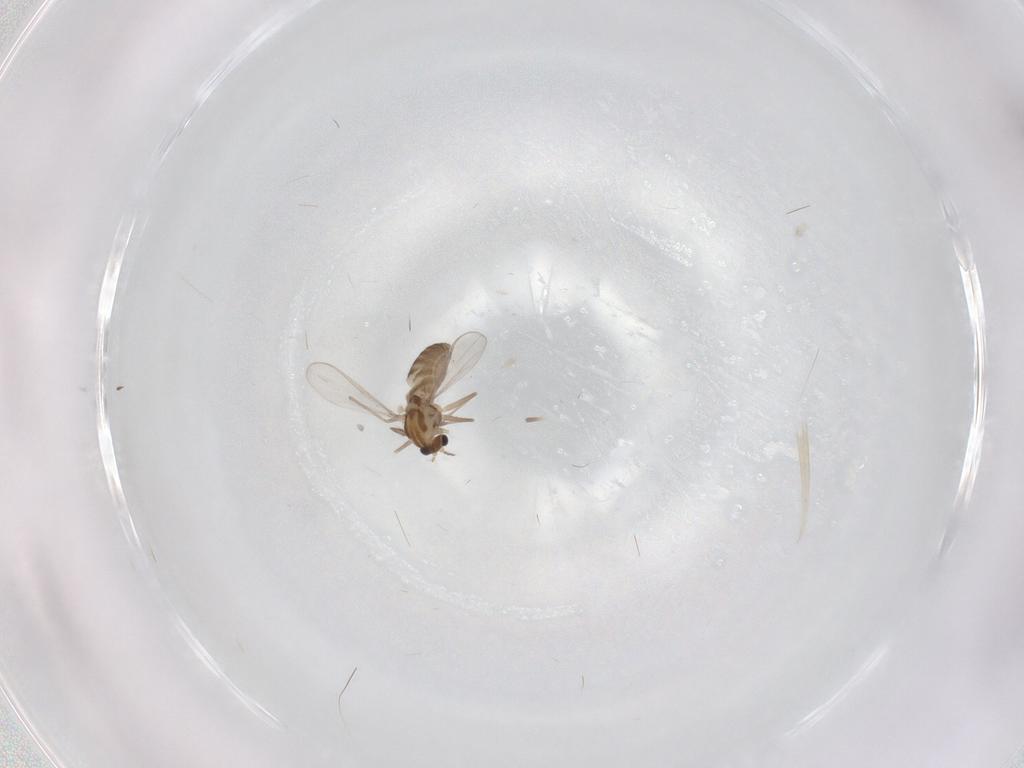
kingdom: Animalia
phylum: Arthropoda
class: Insecta
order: Diptera
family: Chironomidae
